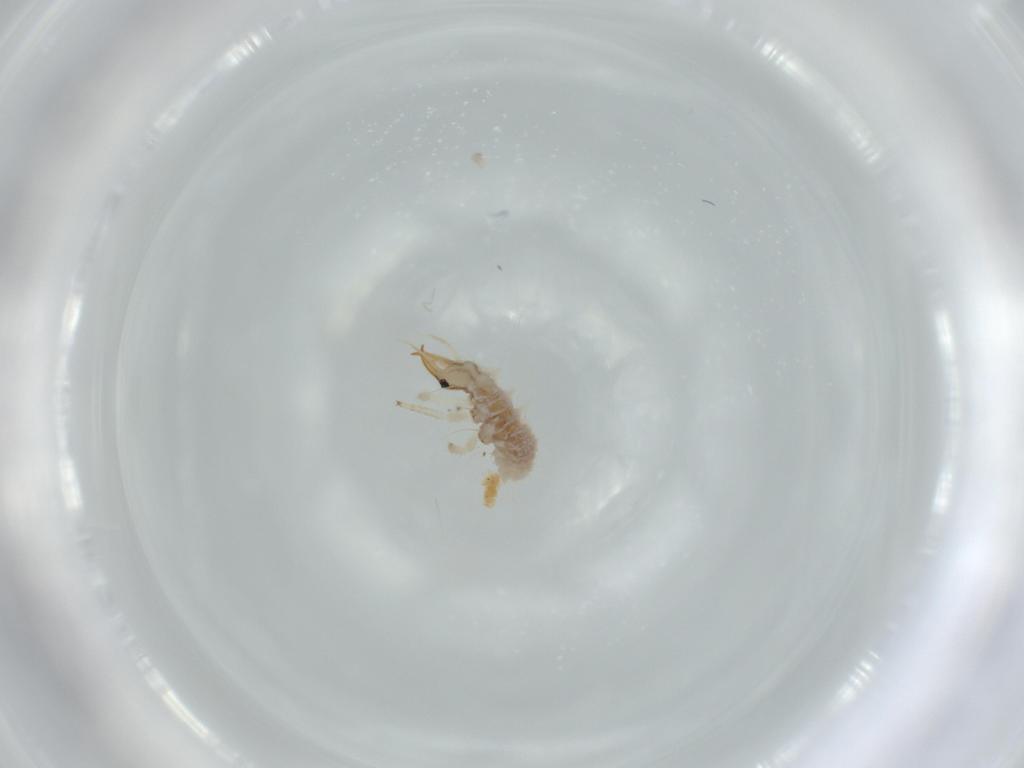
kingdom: Animalia
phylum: Arthropoda
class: Insecta
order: Neuroptera
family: Chrysopidae
